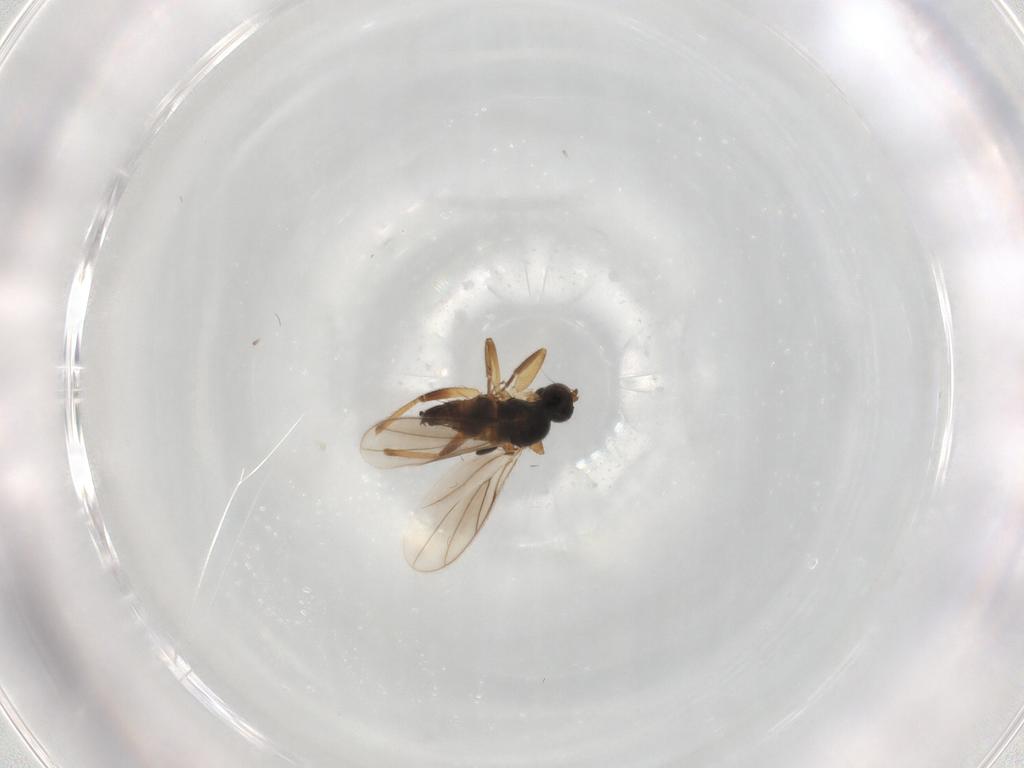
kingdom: Animalia
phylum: Arthropoda
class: Insecta
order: Diptera
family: Hybotidae
